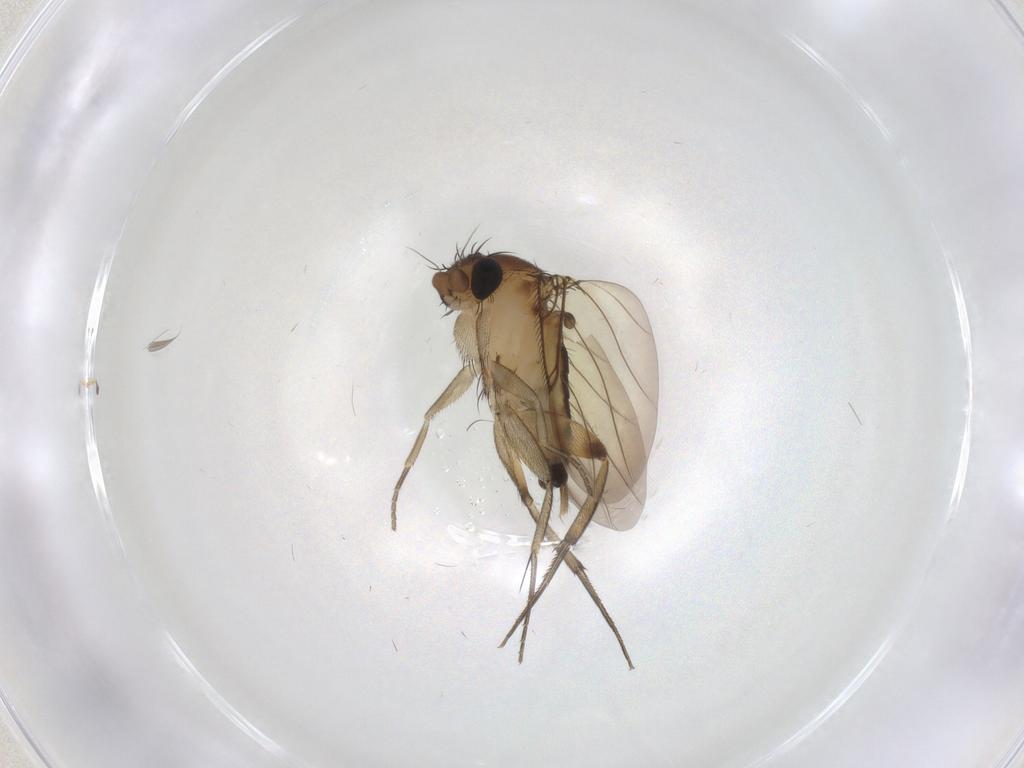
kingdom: Animalia
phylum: Arthropoda
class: Insecta
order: Diptera
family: Phoridae
